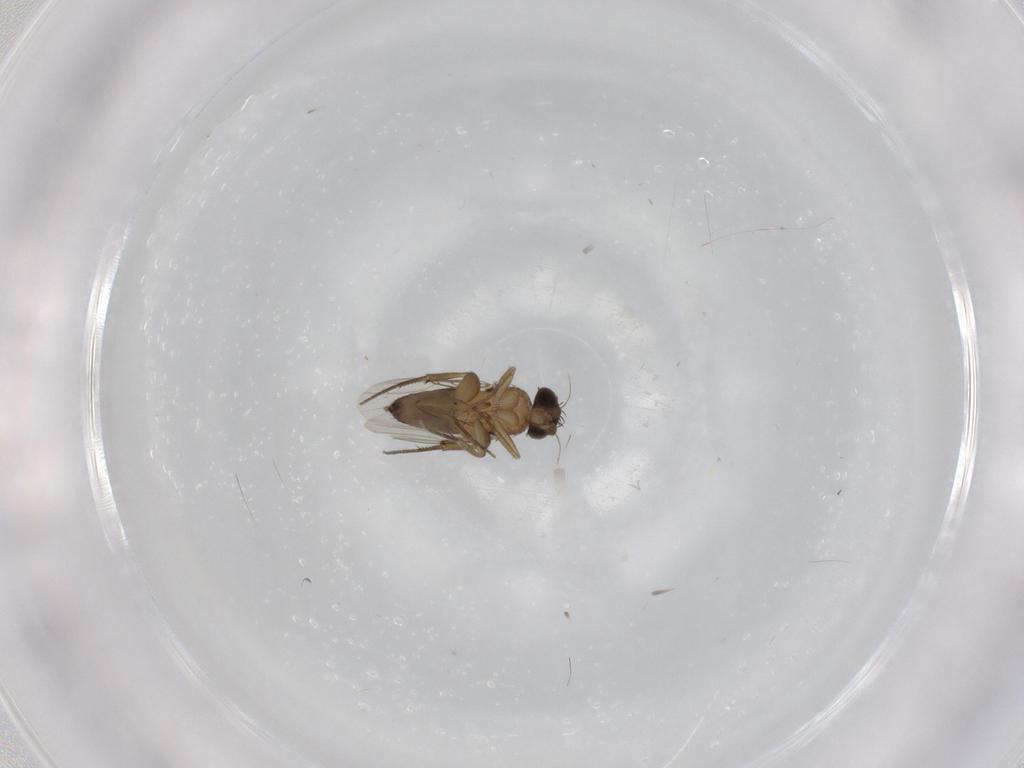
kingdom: Animalia
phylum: Arthropoda
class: Insecta
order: Diptera
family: Phoridae
